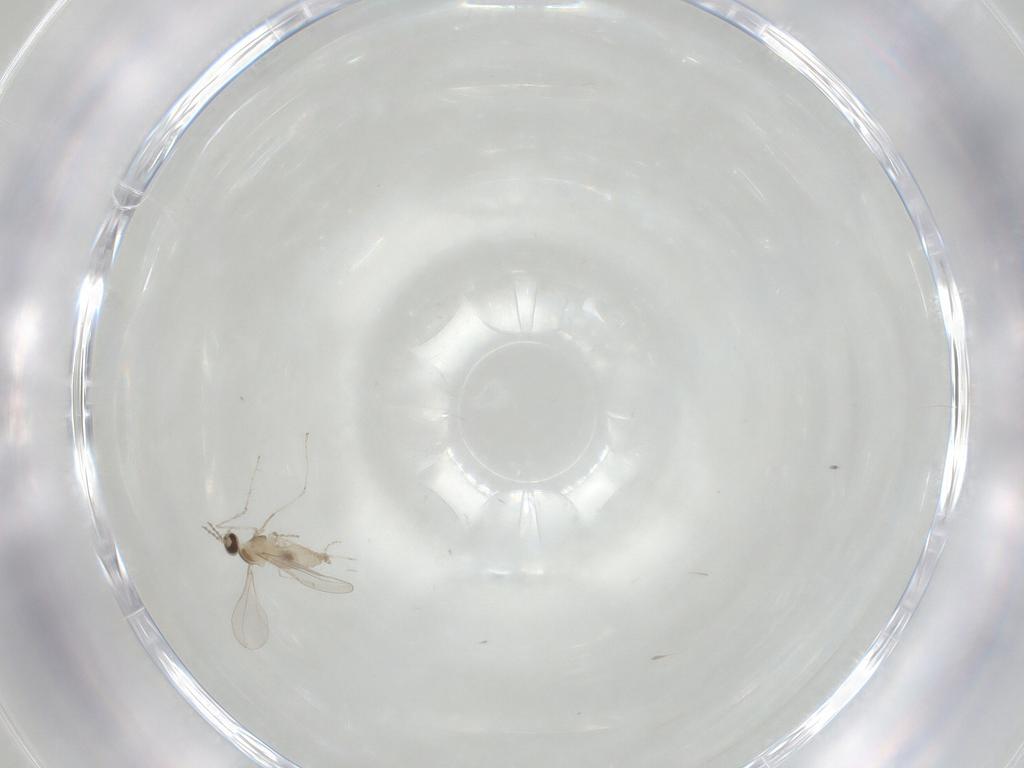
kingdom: Animalia
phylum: Arthropoda
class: Insecta
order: Diptera
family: Cecidomyiidae
